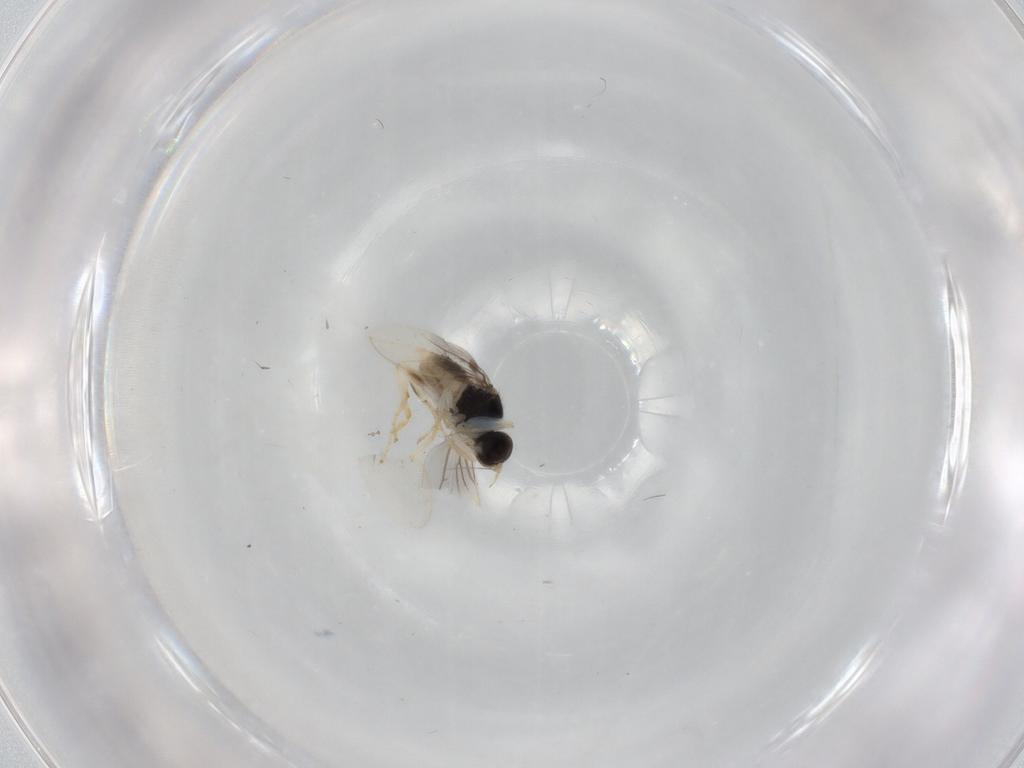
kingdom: Animalia
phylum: Arthropoda
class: Insecta
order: Diptera
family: Hybotidae
